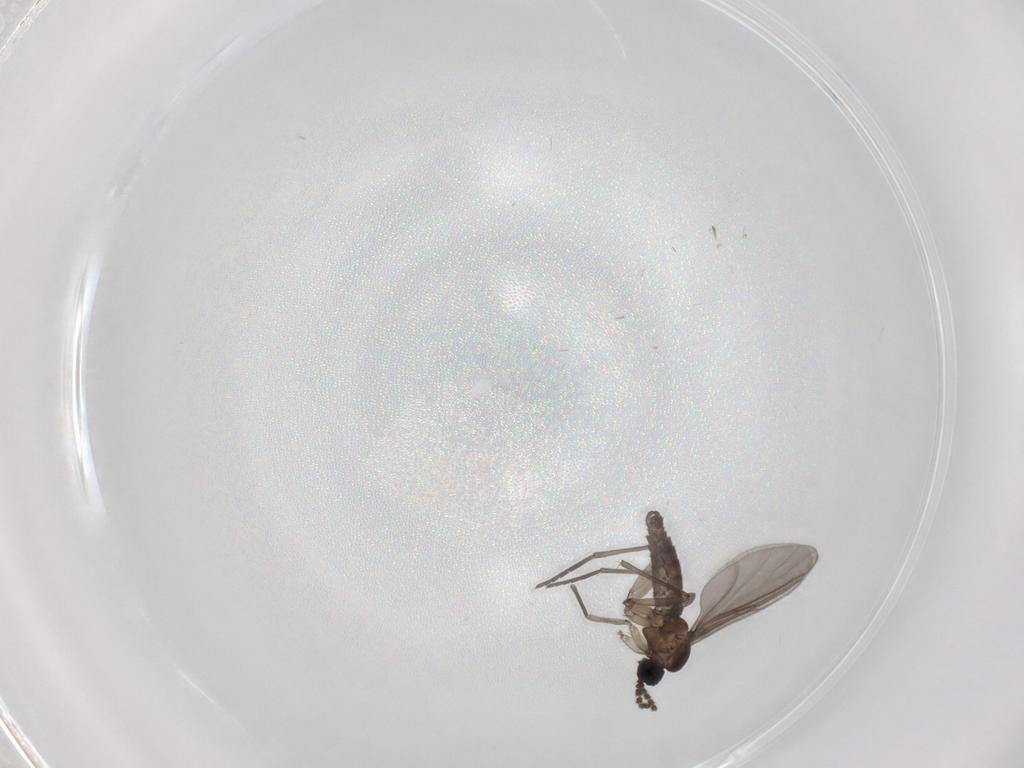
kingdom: Animalia
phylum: Arthropoda
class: Insecta
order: Diptera
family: Chironomidae
